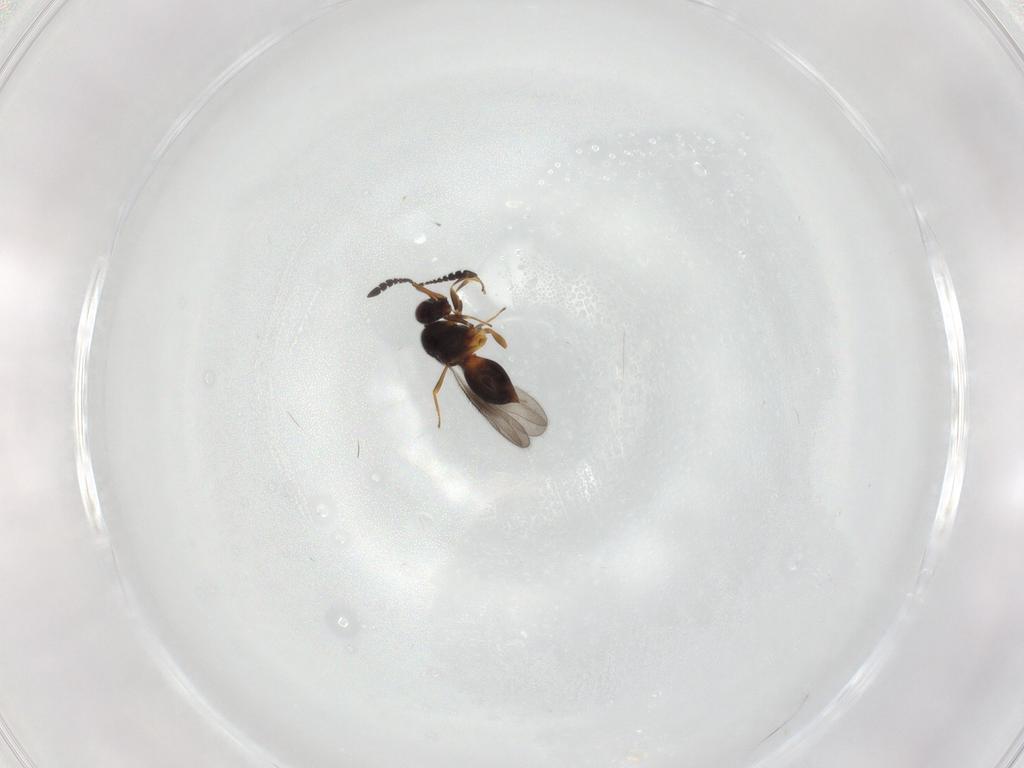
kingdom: Animalia
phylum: Arthropoda
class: Insecta
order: Hymenoptera
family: Ceraphronidae
